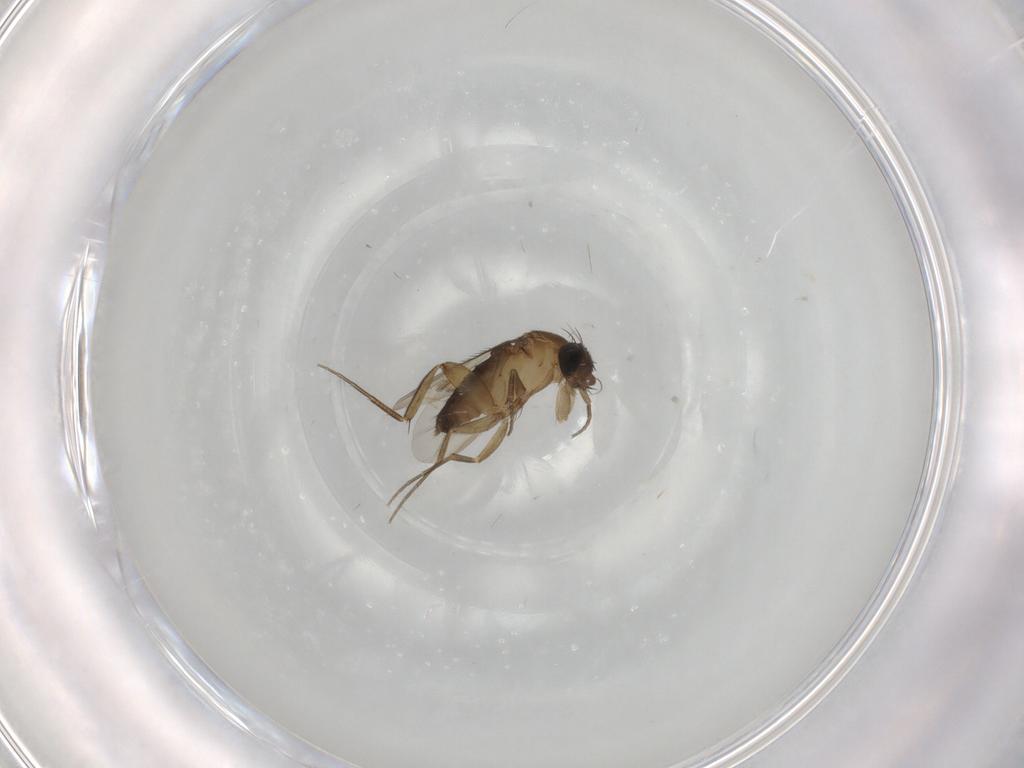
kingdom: Animalia
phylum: Arthropoda
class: Insecta
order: Diptera
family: Phoridae
